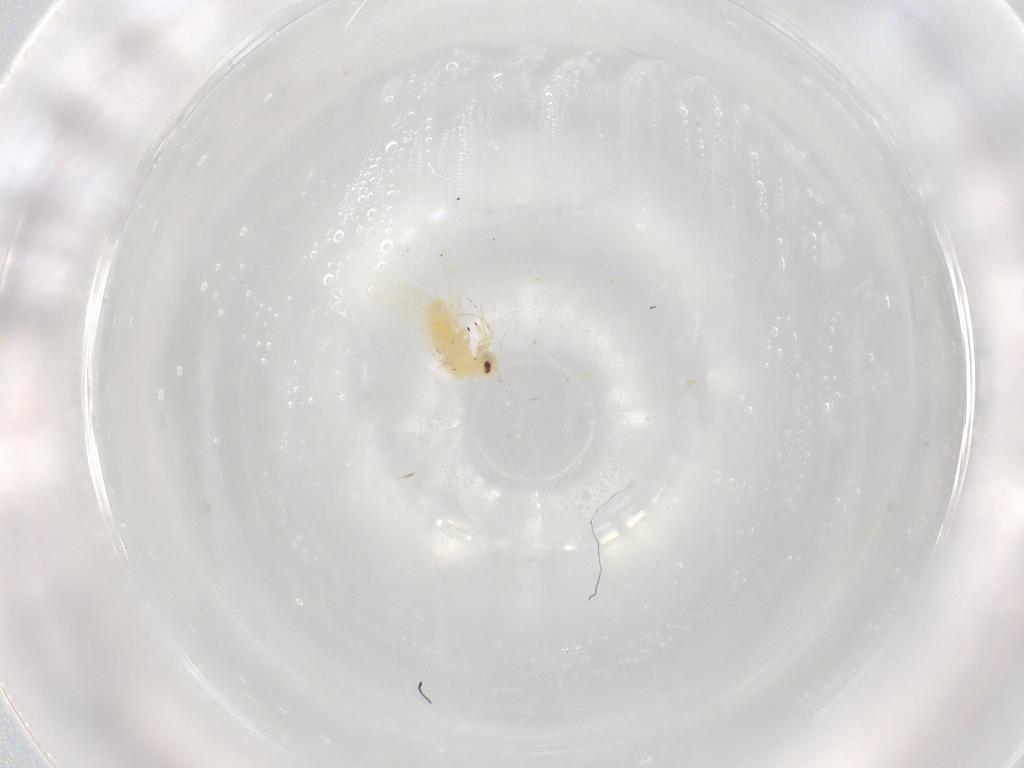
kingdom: Animalia
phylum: Arthropoda
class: Insecta
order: Hemiptera
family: Aleyrodidae
